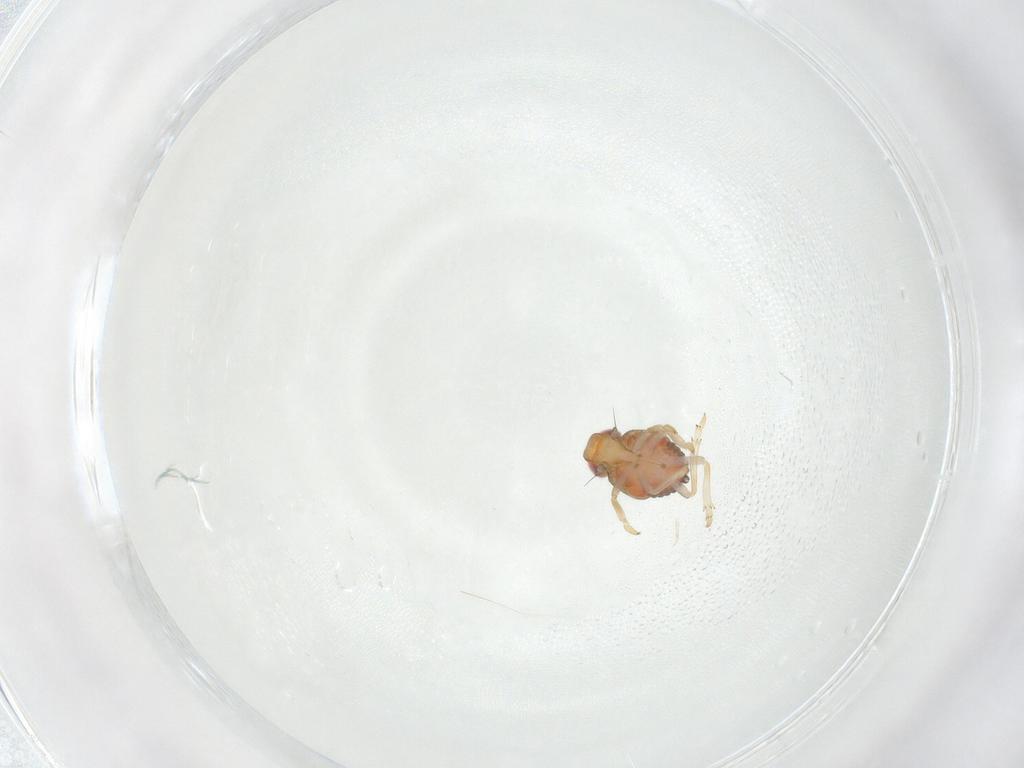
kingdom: Animalia
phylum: Arthropoda
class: Insecta
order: Hemiptera
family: Issidae
